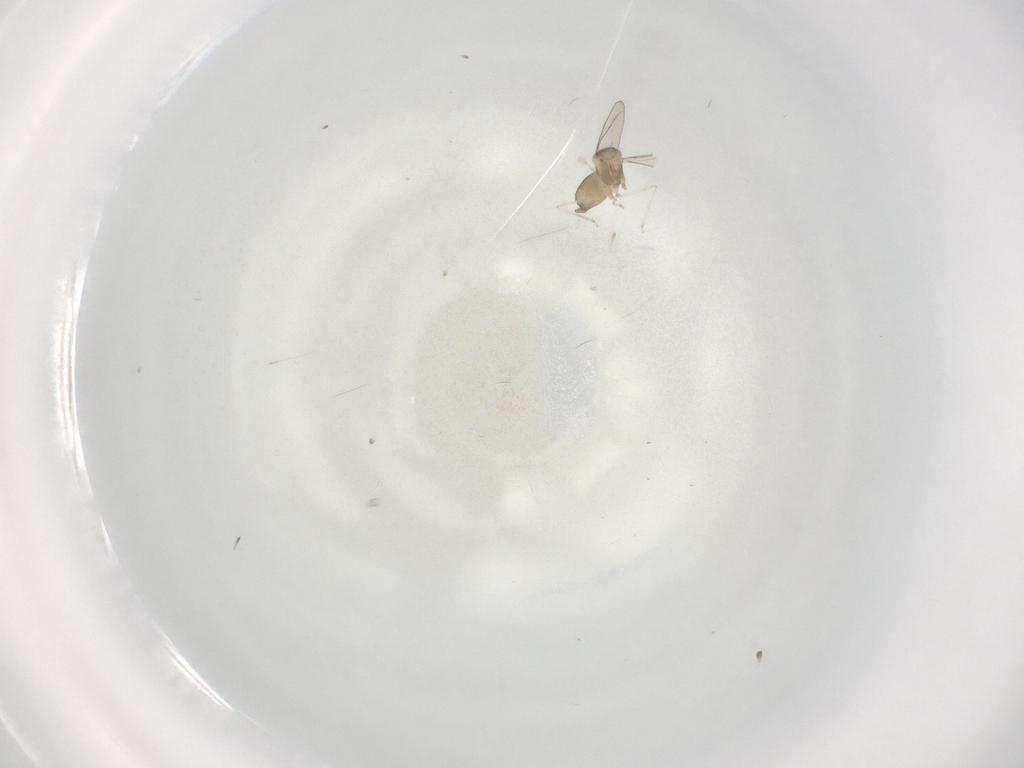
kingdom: Animalia
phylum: Arthropoda
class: Insecta
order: Diptera
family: Cecidomyiidae
